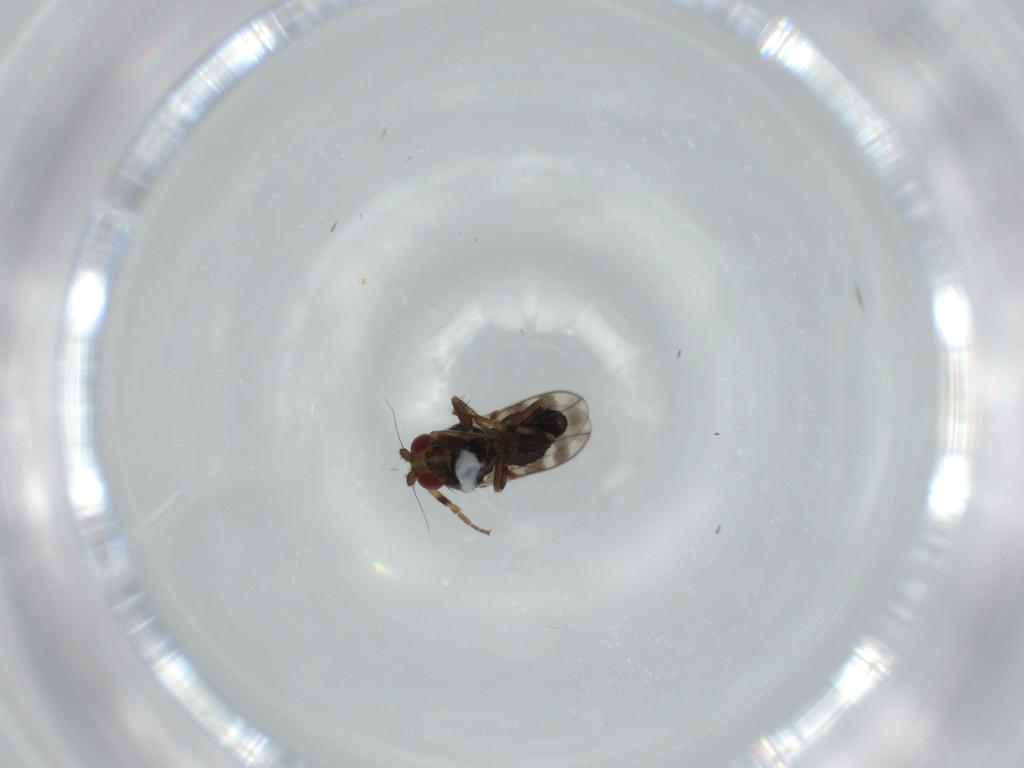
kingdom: Animalia
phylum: Arthropoda
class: Insecta
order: Diptera
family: Sphaeroceridae
